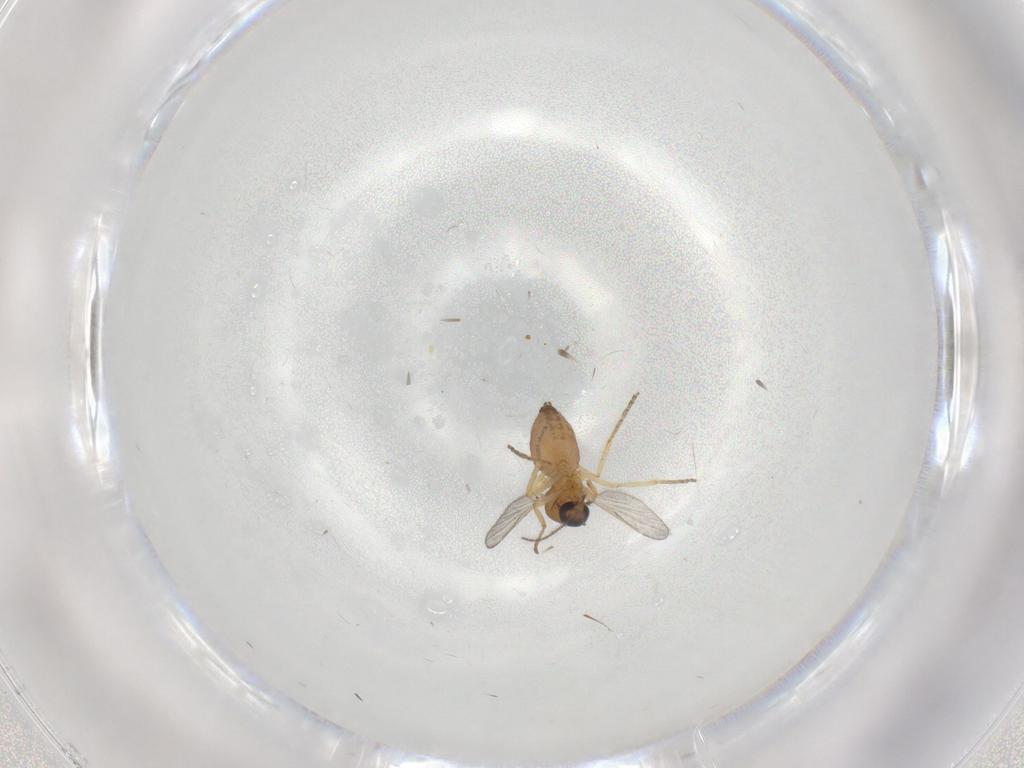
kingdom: Animalia
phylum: Arthropoda
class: Insecta
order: Diptera
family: Ceratopogonidae
